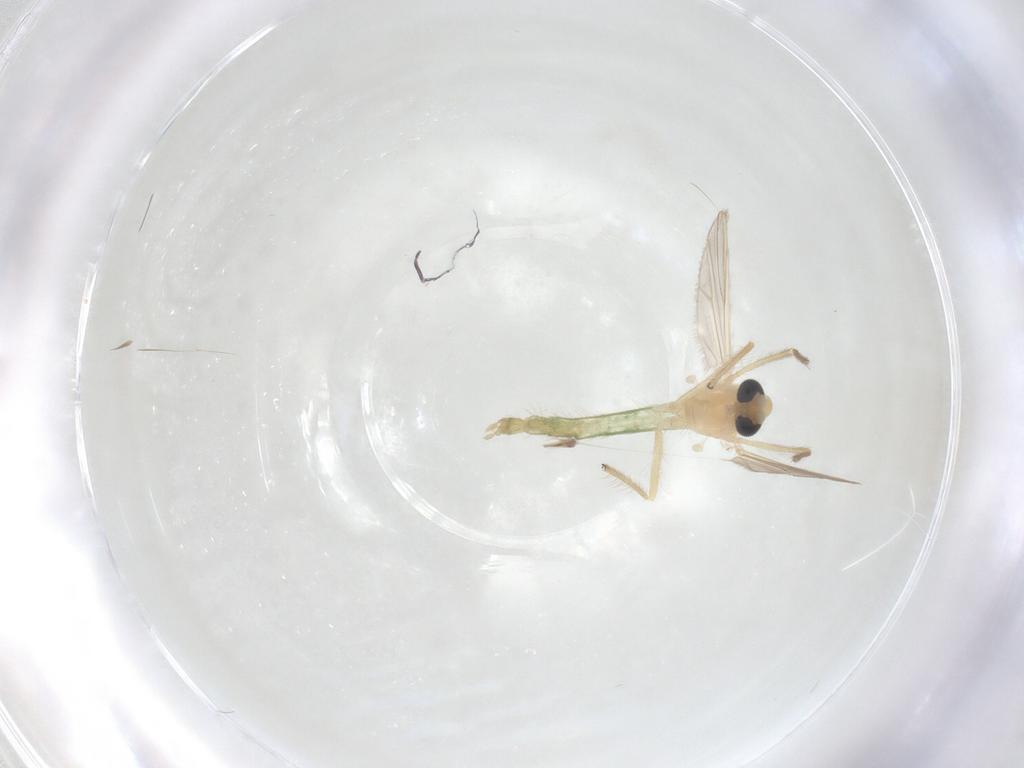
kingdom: Animalia
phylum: Arthropoda
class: Insecta
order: Diptera
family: Chironomidae
